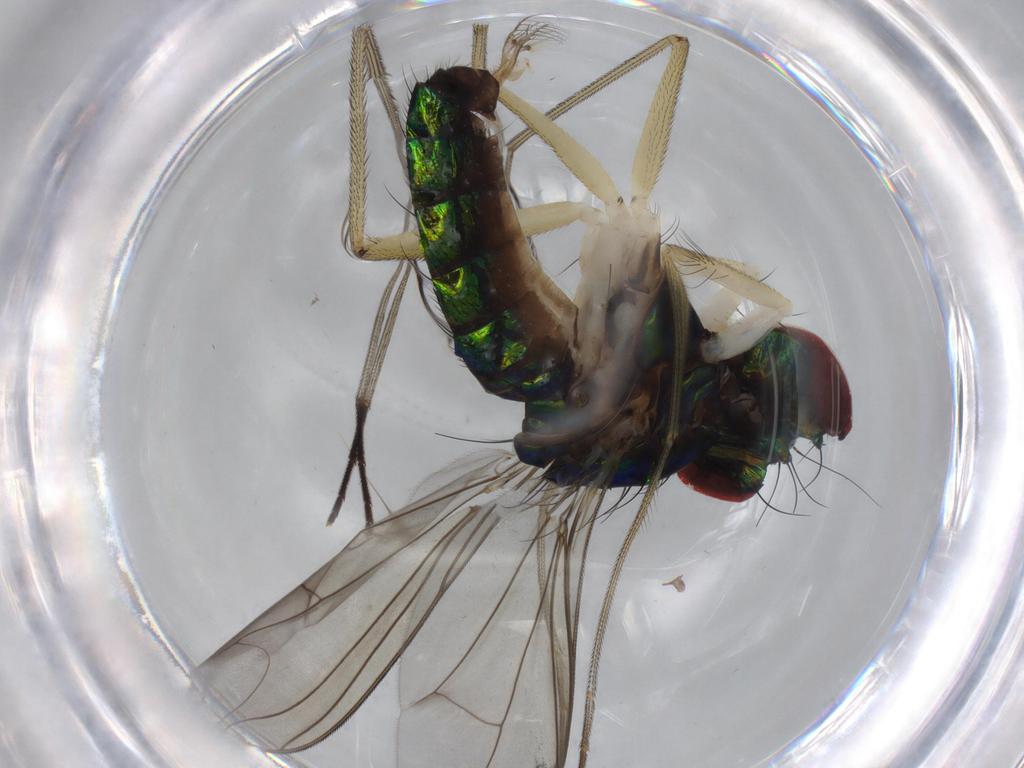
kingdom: Animalia
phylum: Arthropoda
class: Insecta
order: Diptera
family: Dolichopodidae
